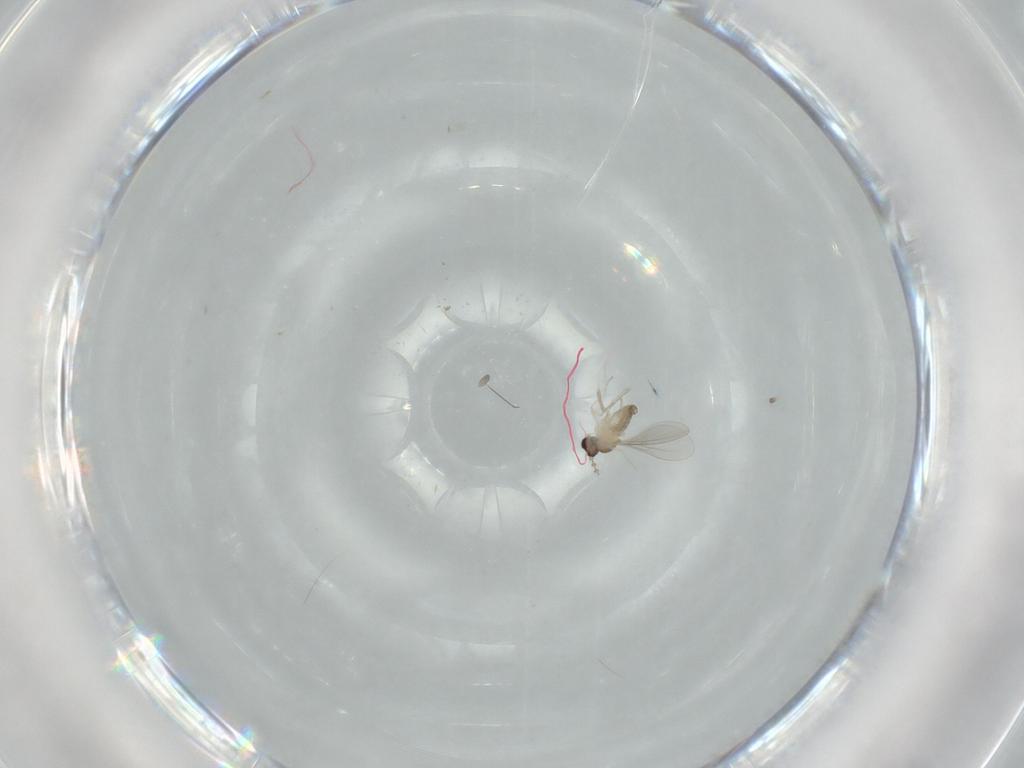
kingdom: Animalia
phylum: Arthropoda
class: Insecta
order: Diptera
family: Cecidomyiidae
